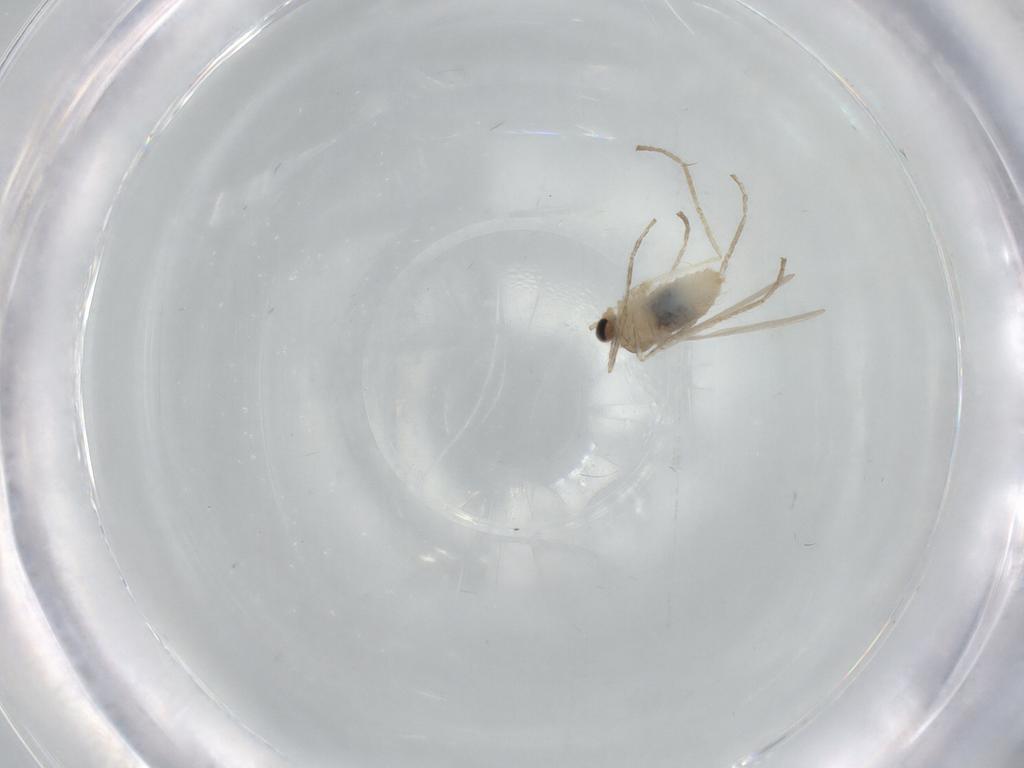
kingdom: Animalia
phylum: Arthropoda
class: Insecta
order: Diptera
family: Cecidomyiidae
